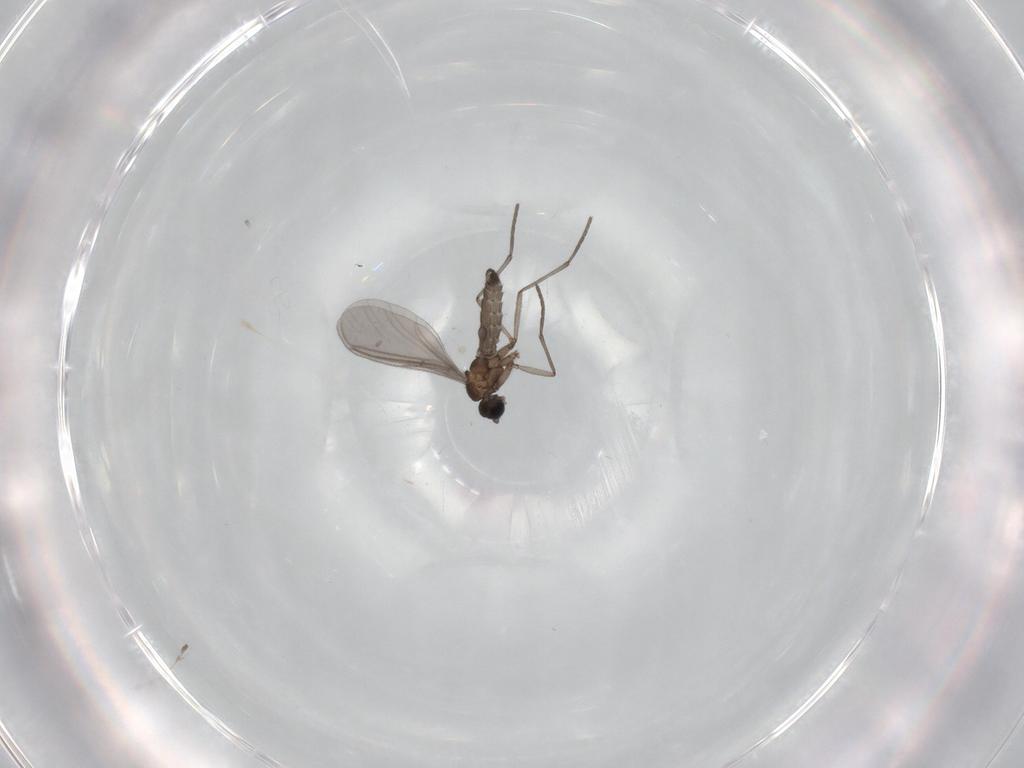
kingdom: Animalia
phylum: Arthropoda
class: Insecta
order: Diptera
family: Sciaridae
